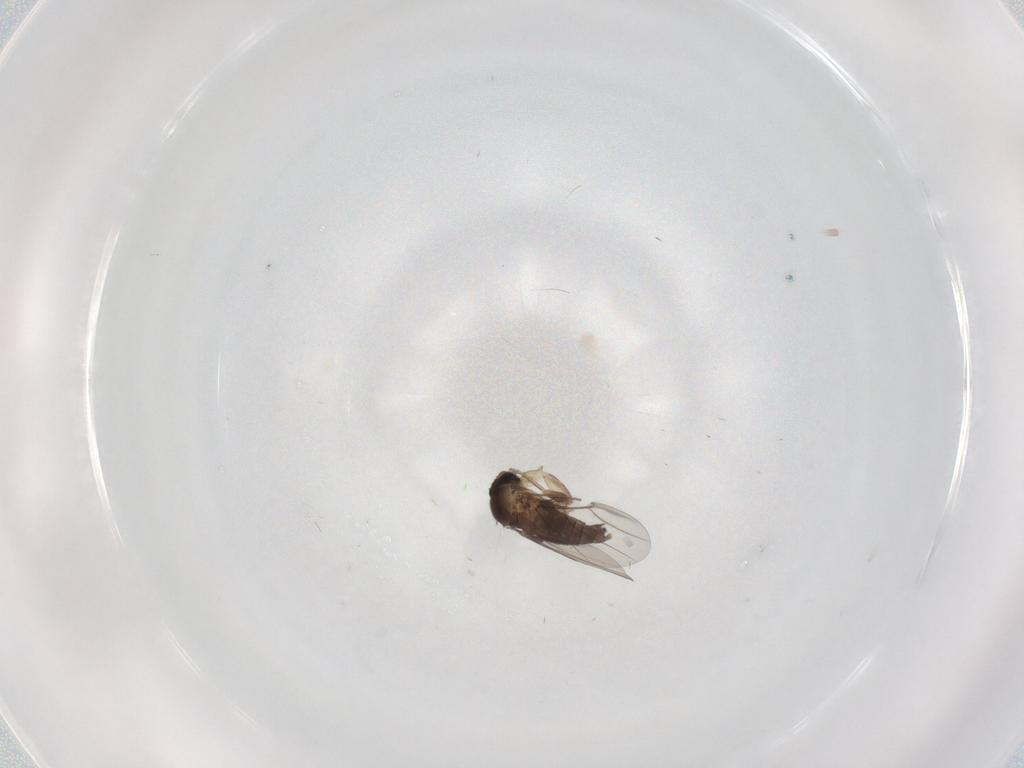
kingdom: Animalia
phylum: Arthropoda
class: Insecta
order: Diptera
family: Phoridae
